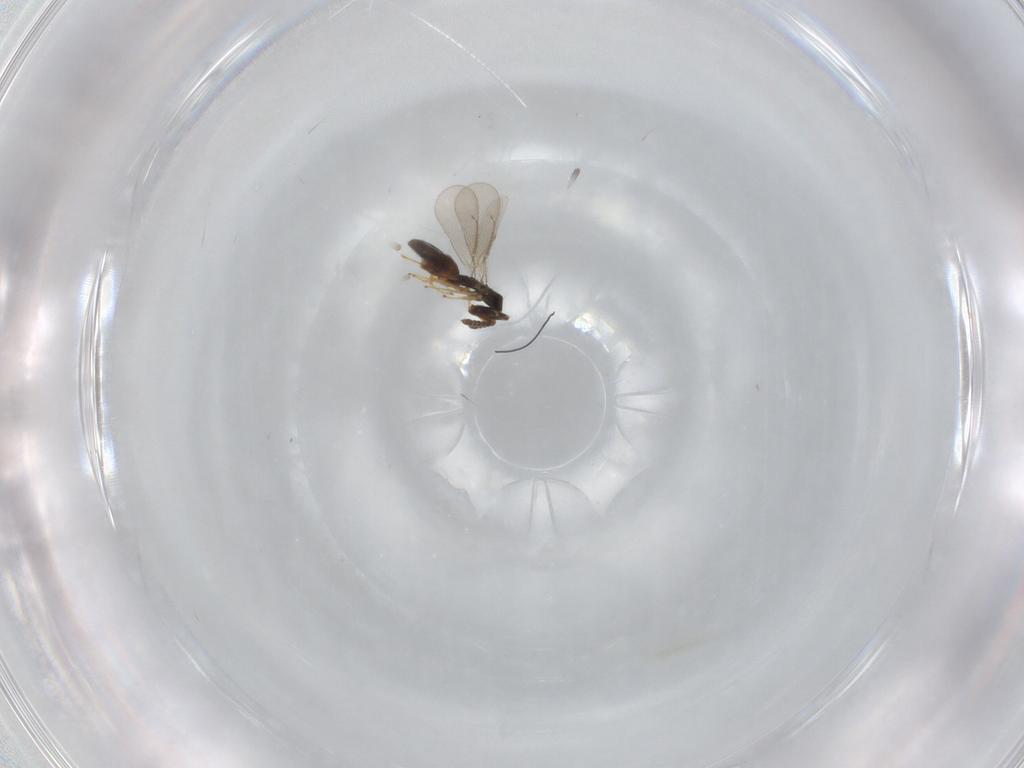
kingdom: Animalia
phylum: Arthropoda
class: Insecta
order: Hymenoptera
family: Eulophidae
